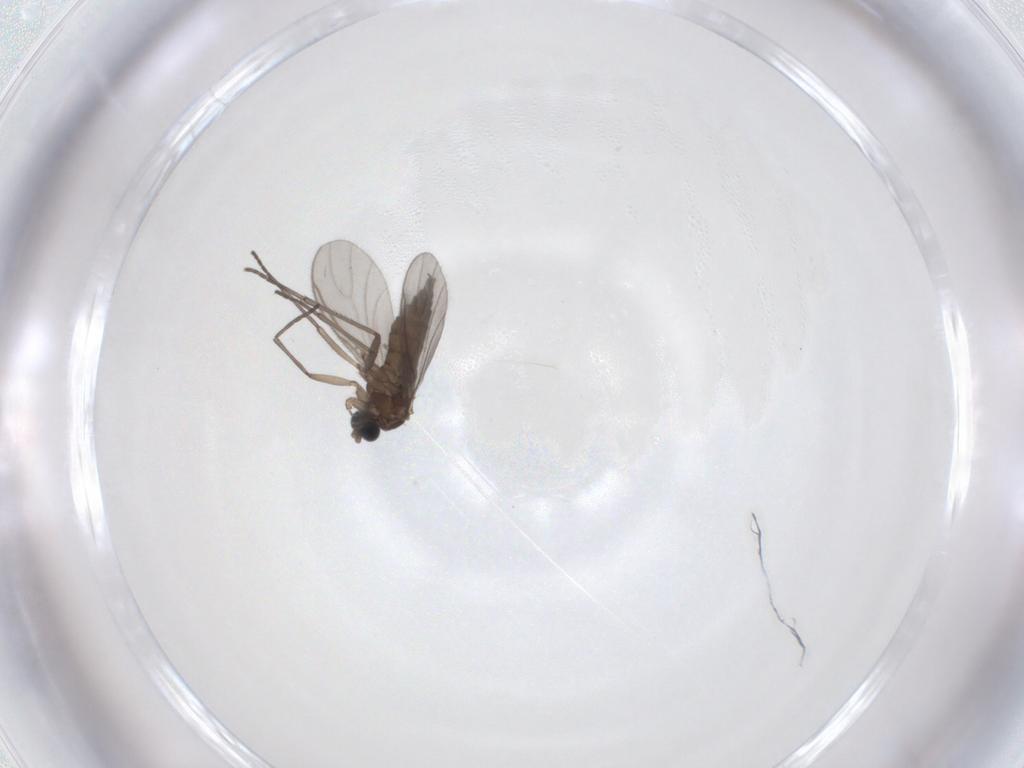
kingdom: Animalia
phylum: Arthropoda
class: Insecta
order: Diptera
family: Sciaridae
